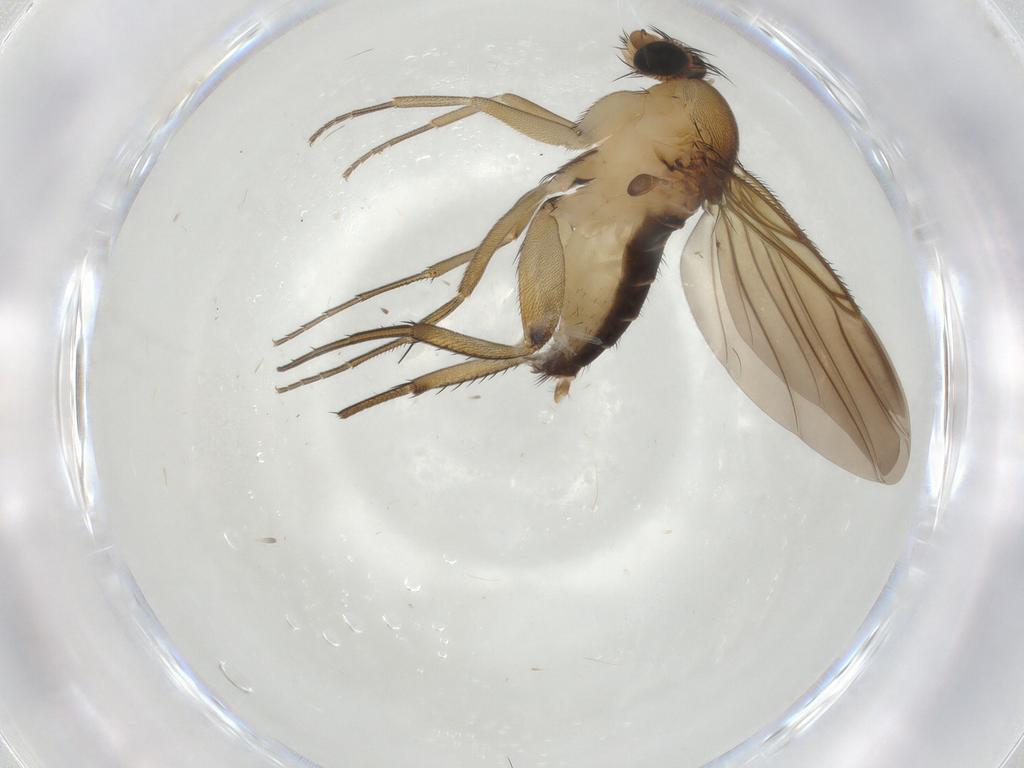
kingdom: Animalia
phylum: Arthropoda
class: Insecta
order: Diptera
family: Phoridae
